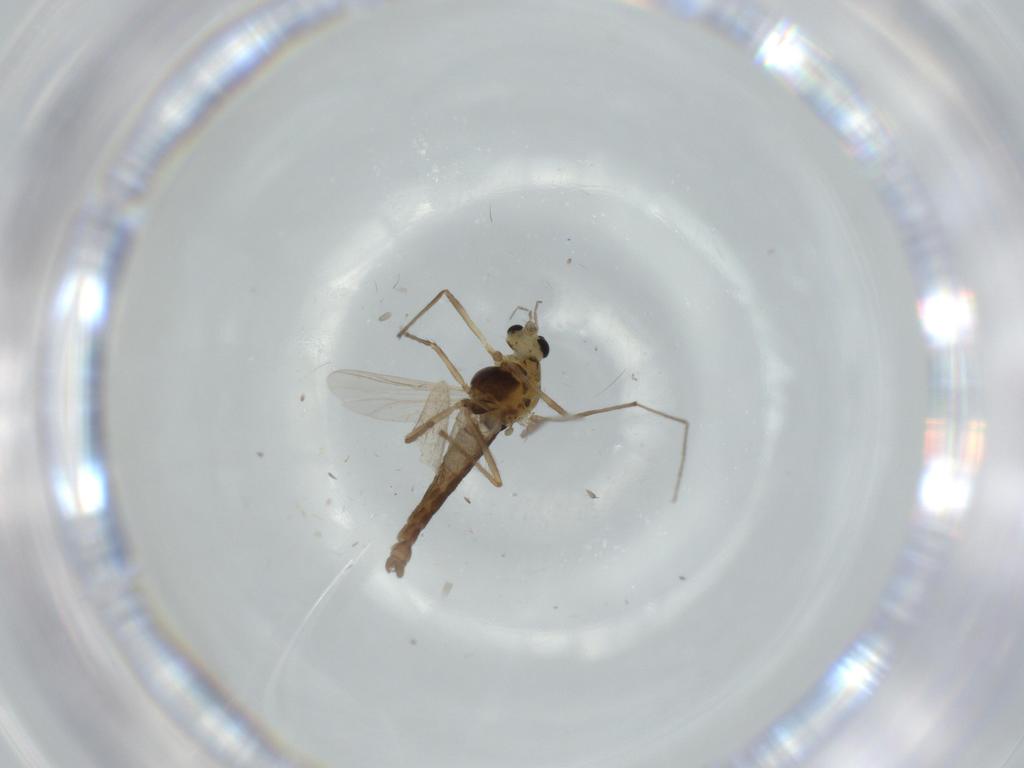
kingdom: Animalia
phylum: Arthropoda
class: Insecta
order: Diptera
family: Chironomidae
